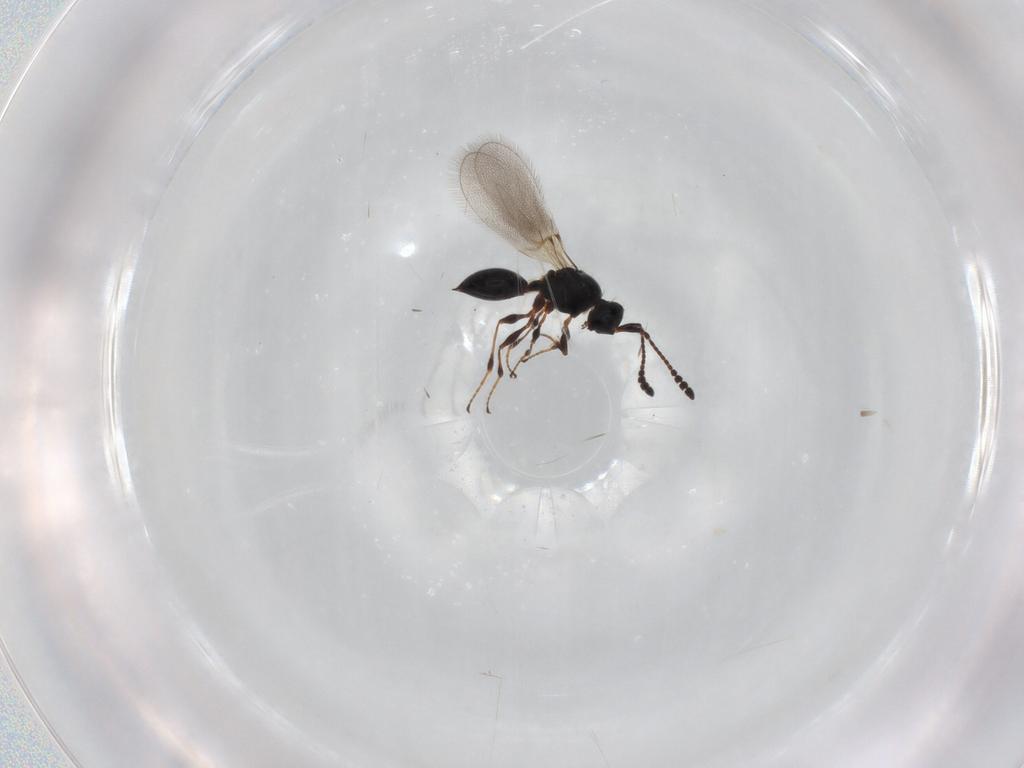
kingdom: Animalia
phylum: Arthropoda
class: Insecta
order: Hymenoptera
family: Diapriidae
